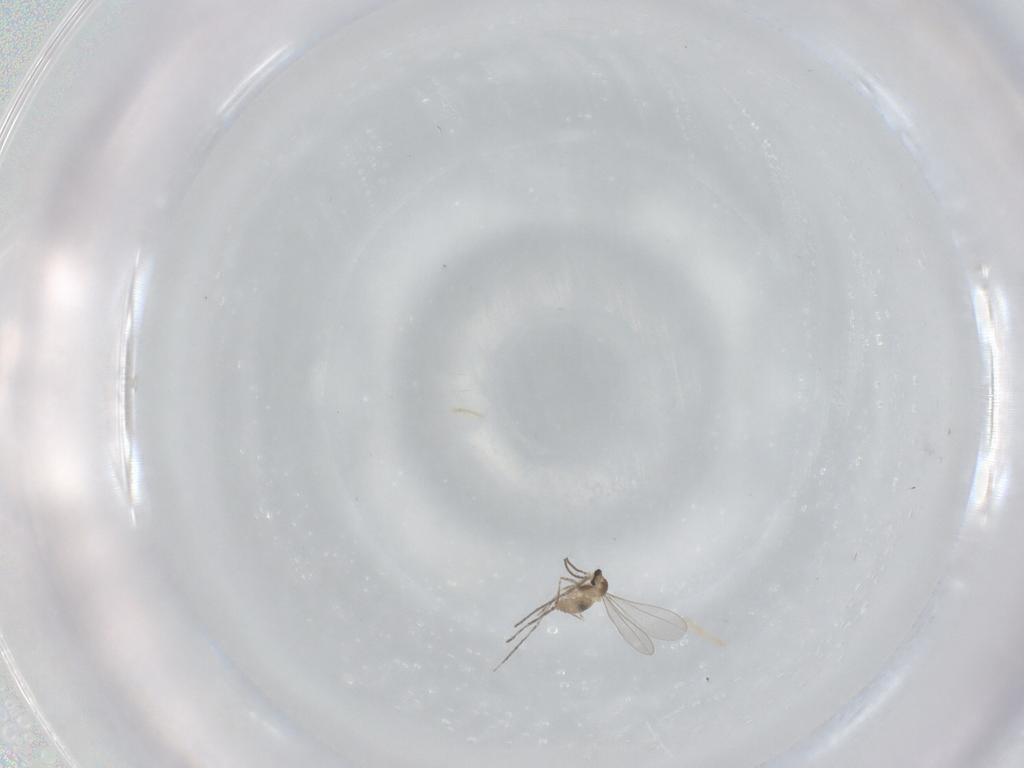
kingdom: Animalia
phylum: Arthropoda
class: Insecta
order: Diptera
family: Cecidomyiidae
